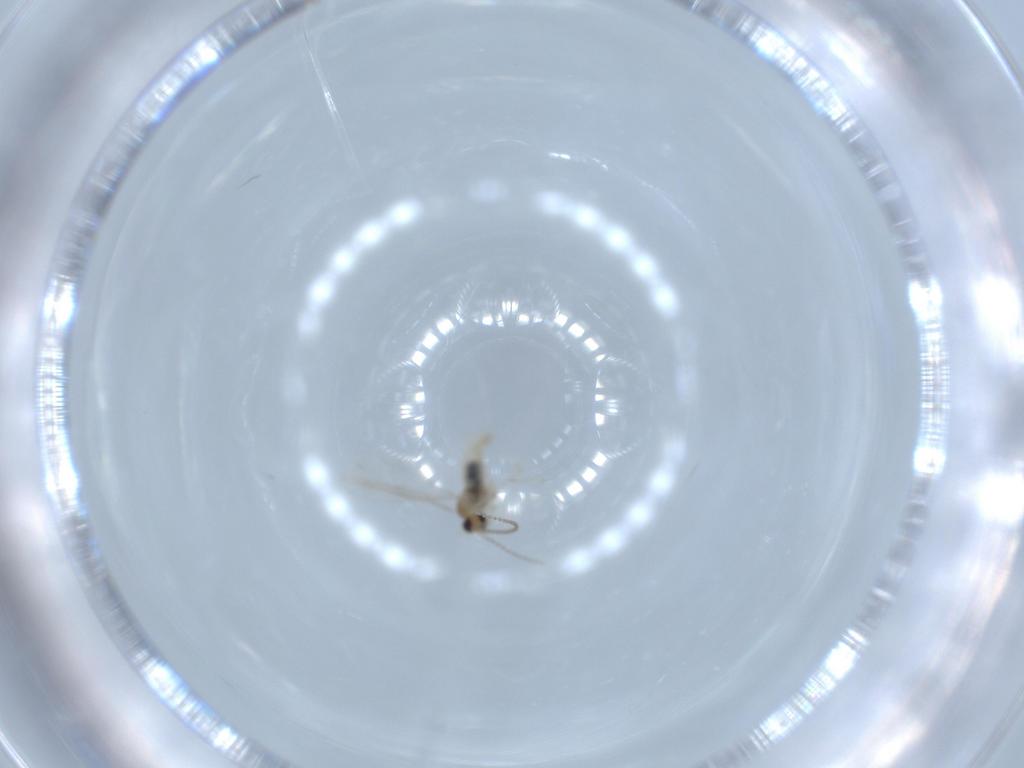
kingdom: Animalia
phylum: Arthropoda
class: Insecta
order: Diptera
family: Cecidomyiidae
